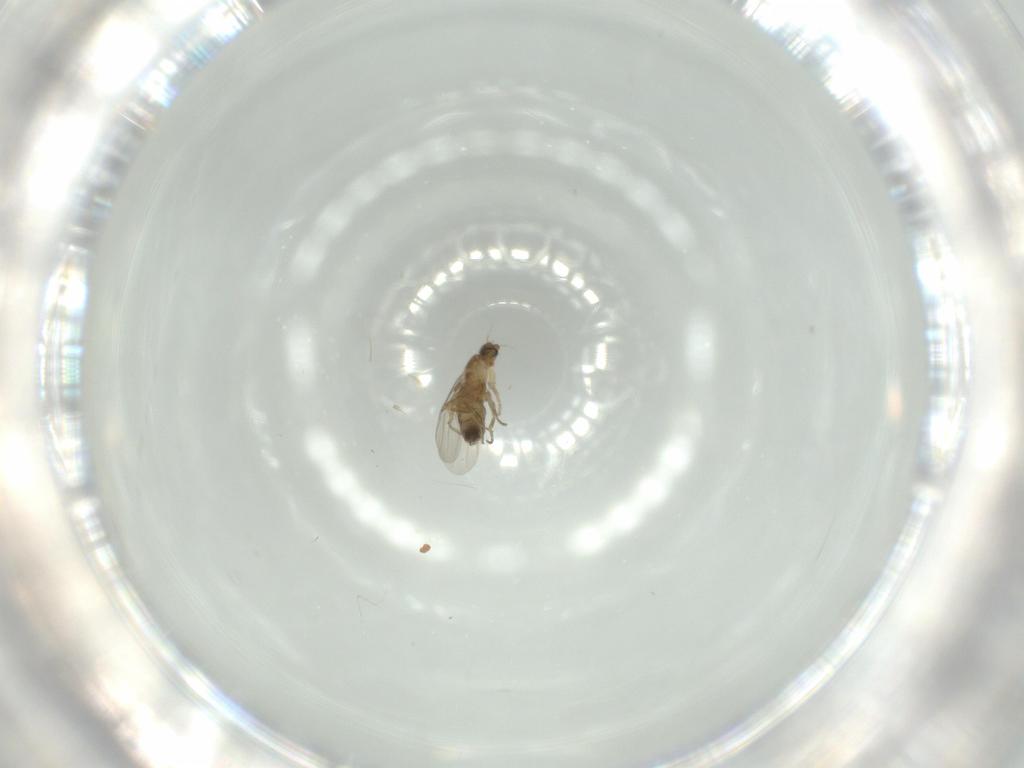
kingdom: Animalia
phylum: Arthropoda
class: Insecta
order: Diptera
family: Phoridae
